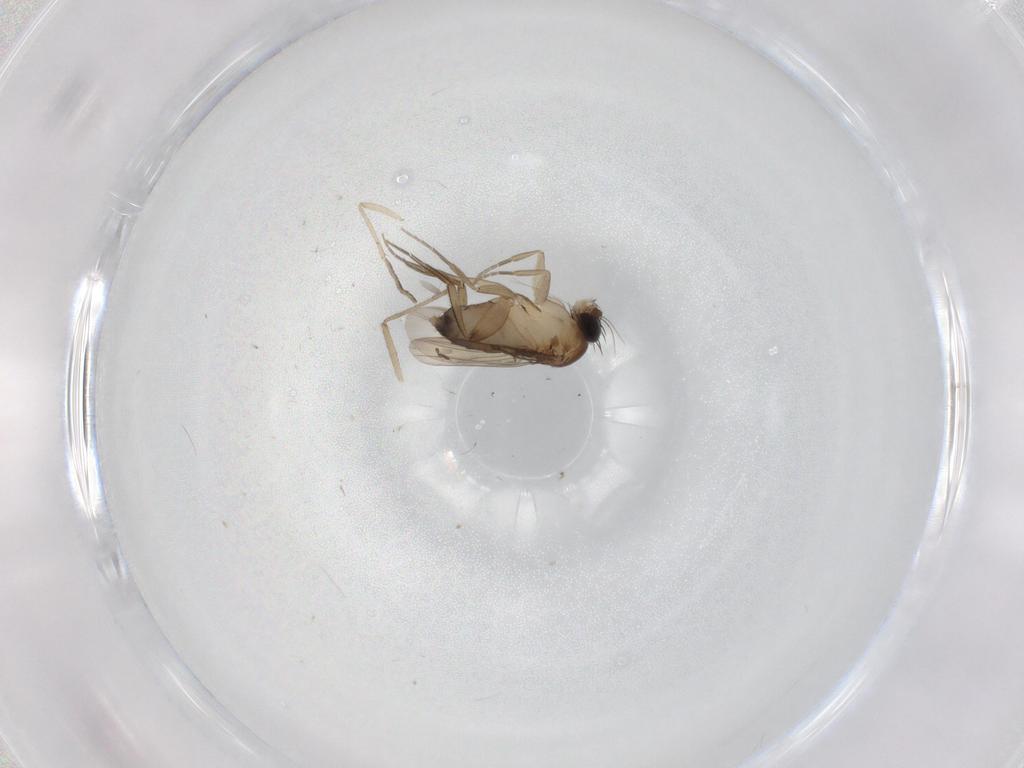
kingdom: Animalia
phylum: Arthropoda
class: Insecta
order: Diptera
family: Phoridae
